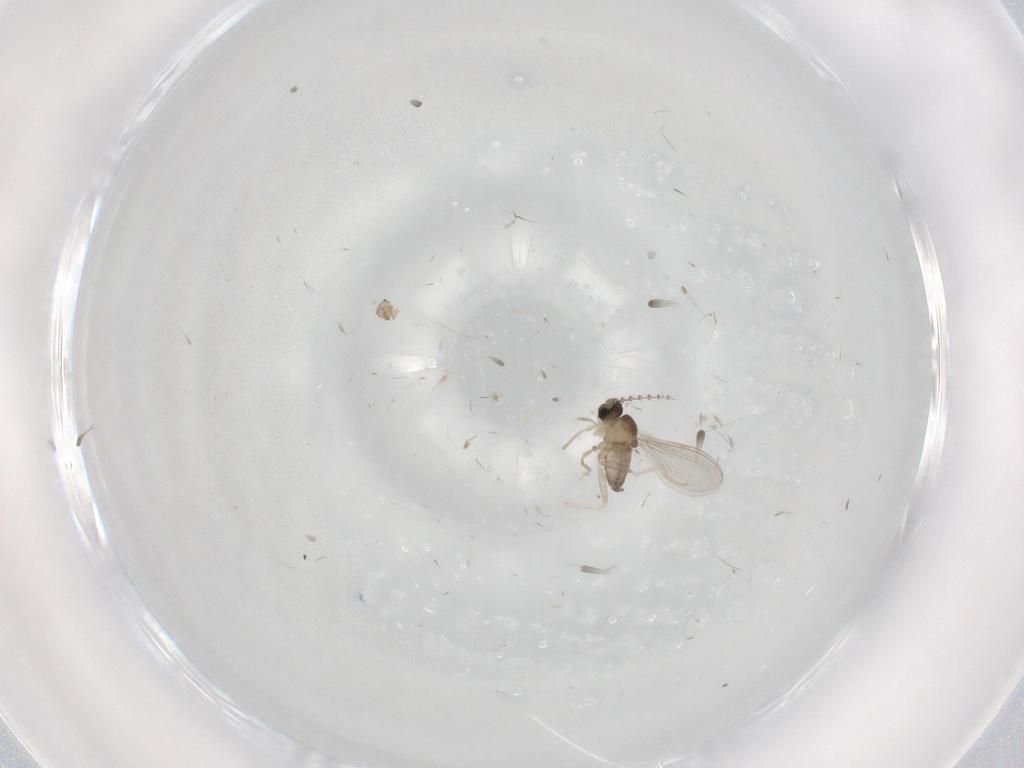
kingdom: Animalia
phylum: Arthropoda
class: Insecta
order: Diptera
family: Cecidomyiidae
